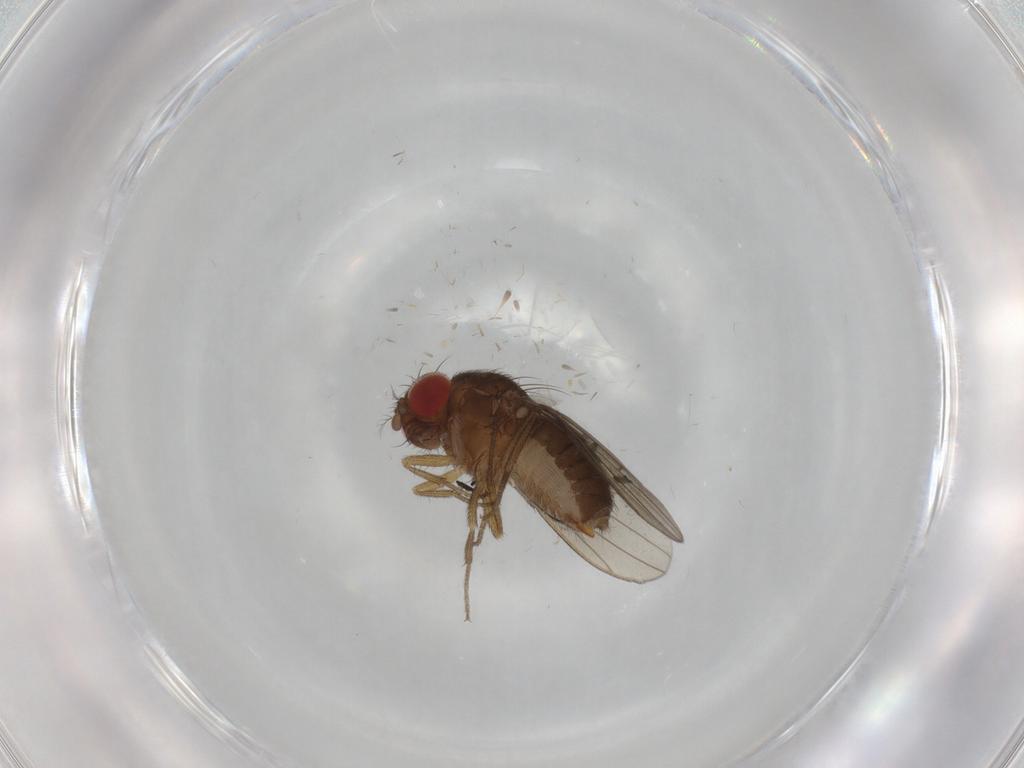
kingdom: Animalia
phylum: Arthropoda
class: Insecta
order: Diptera
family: Drosophilidae
